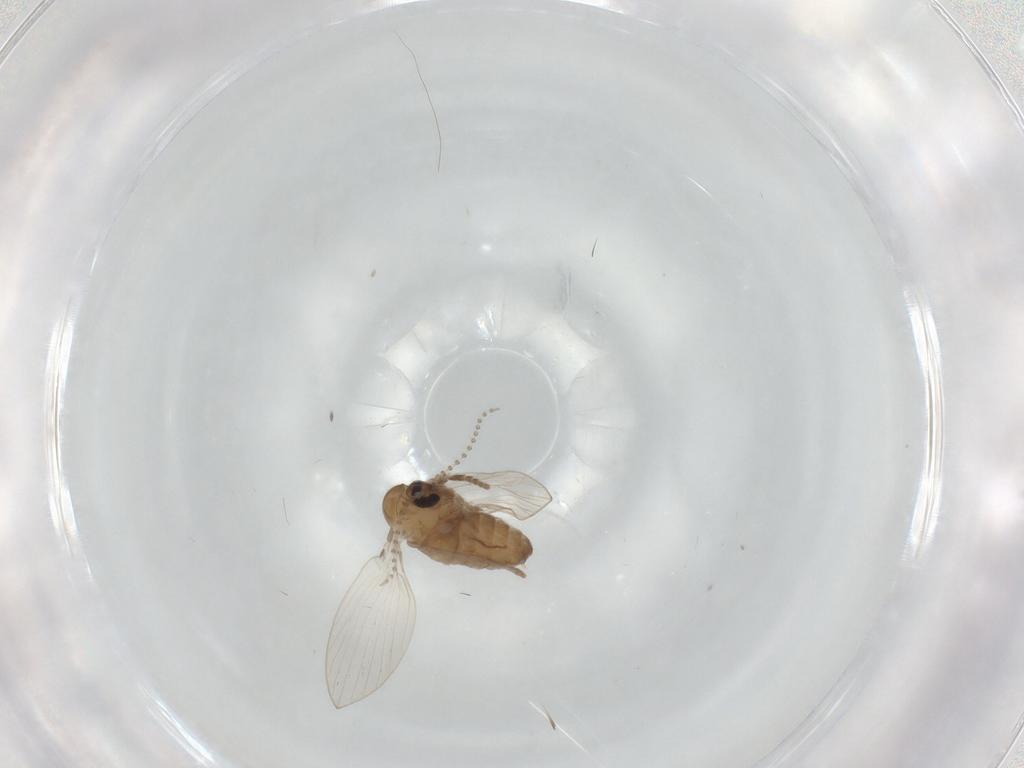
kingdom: Animalia
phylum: Arthropoda
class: Insecta
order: Diptera
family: Psychodidae
